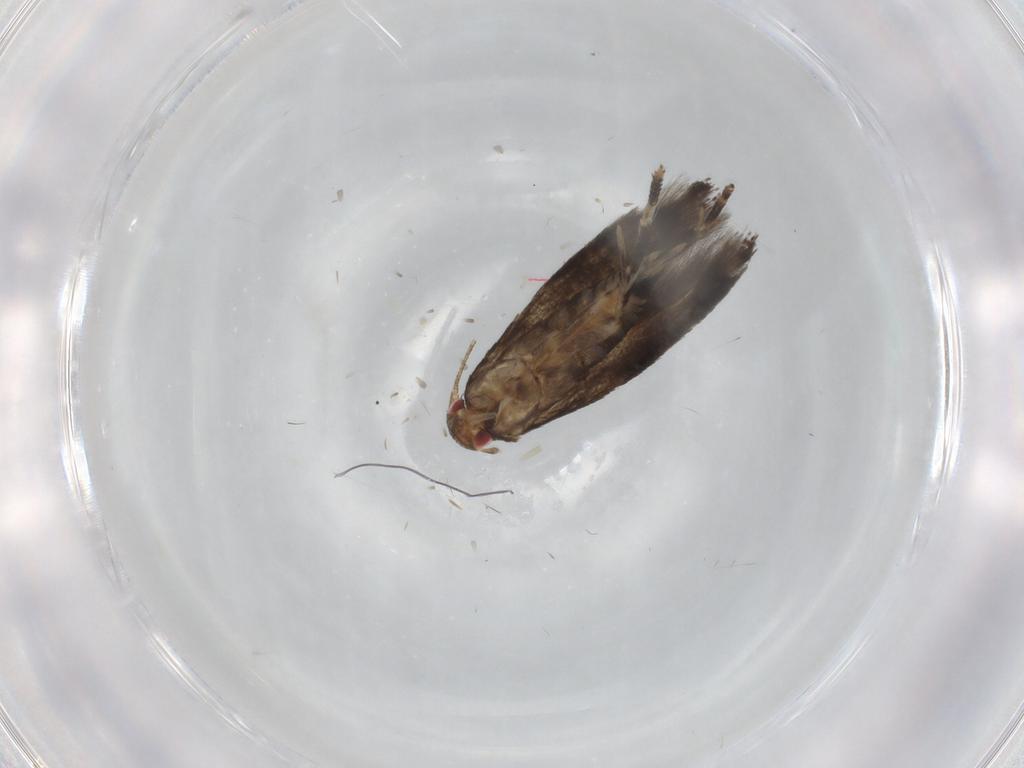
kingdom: Animalia
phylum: Arthropoda
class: Insecta
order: Lepidoptera
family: Momphidae
